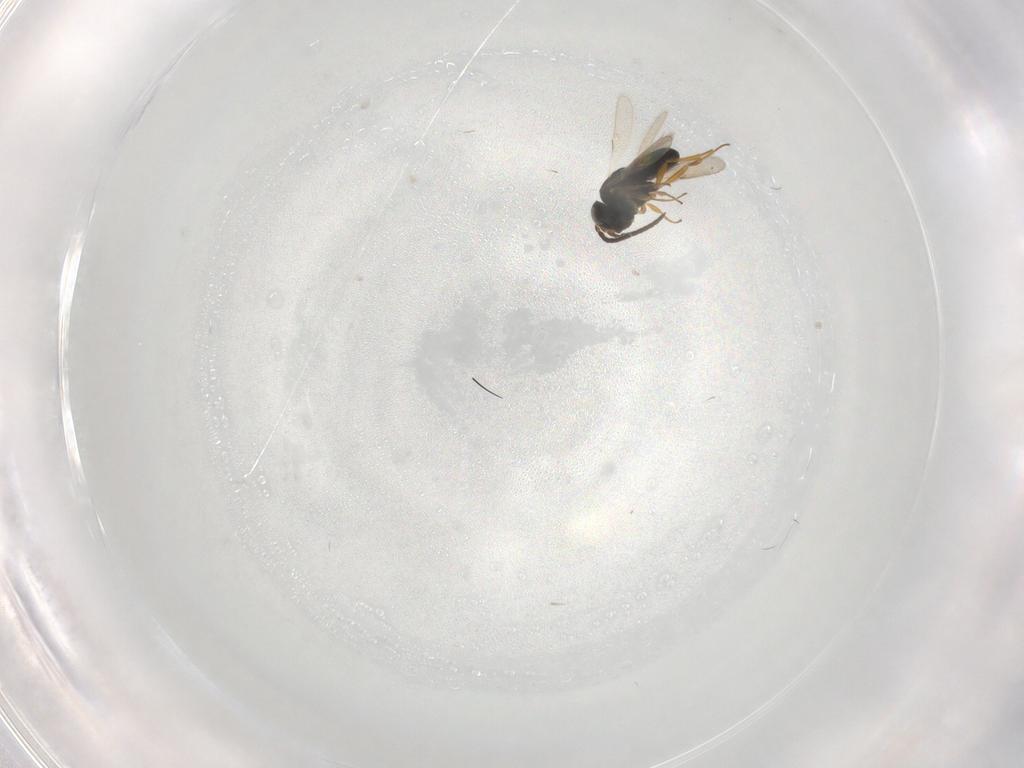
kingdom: Animalia
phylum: Arthropoda
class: Insecta
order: Hymenoptera
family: Scelionidae
